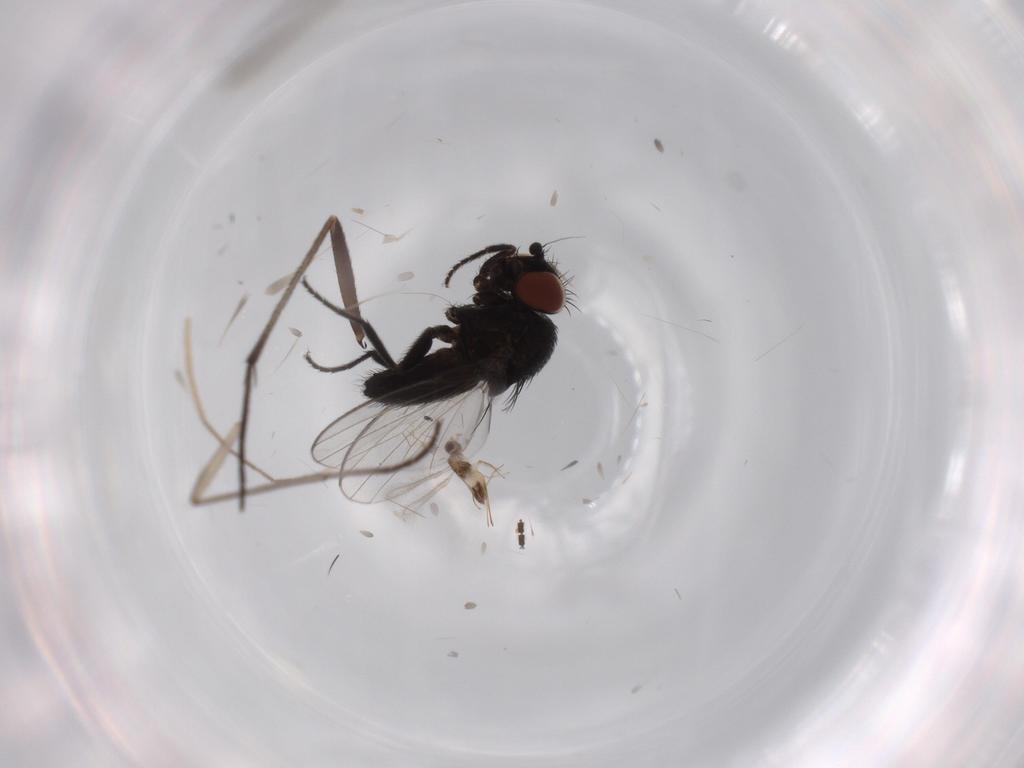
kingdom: Animalia
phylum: Arthropoda
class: Insecta
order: Diptera
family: Milichiidae
